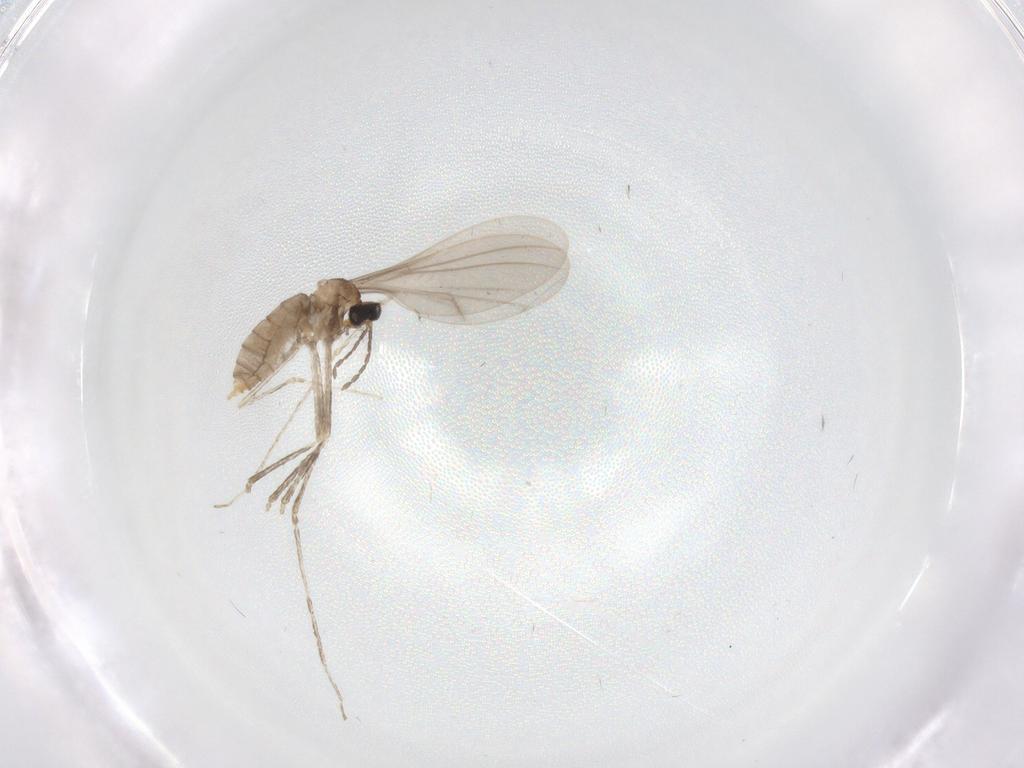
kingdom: Animalia
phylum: Arthropoda
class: Insecta
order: Diptera
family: Cecidomyiidae
